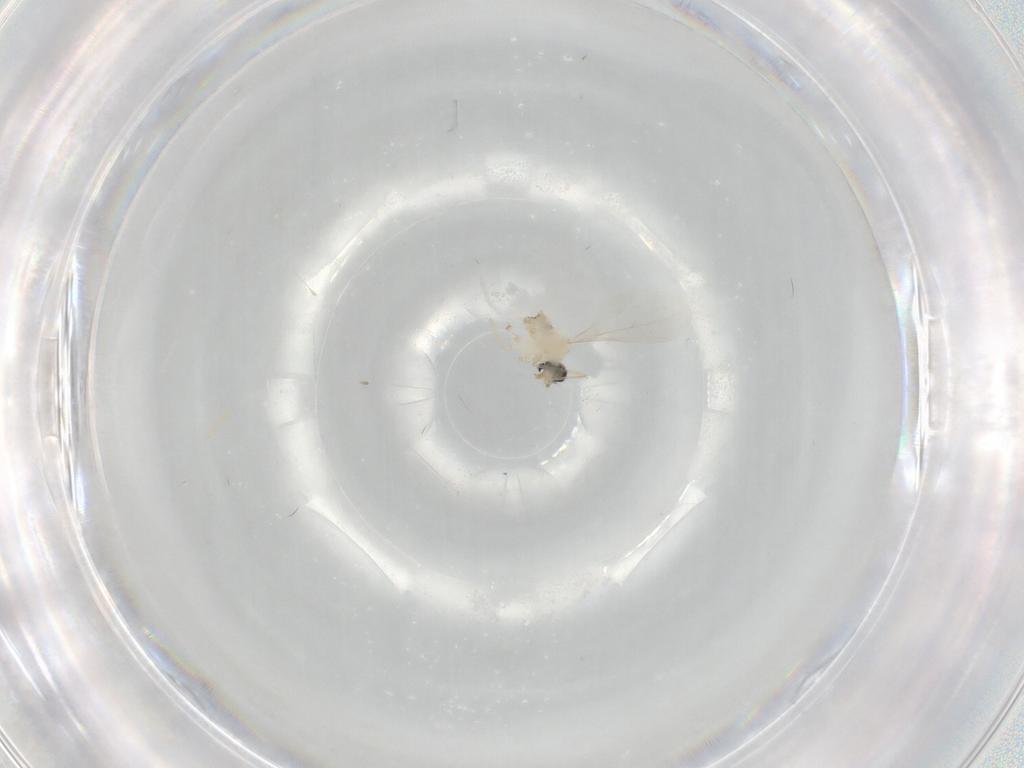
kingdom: Animalia
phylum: Arthropoda
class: Insecta
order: Diptera
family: Cecidomyiidae
